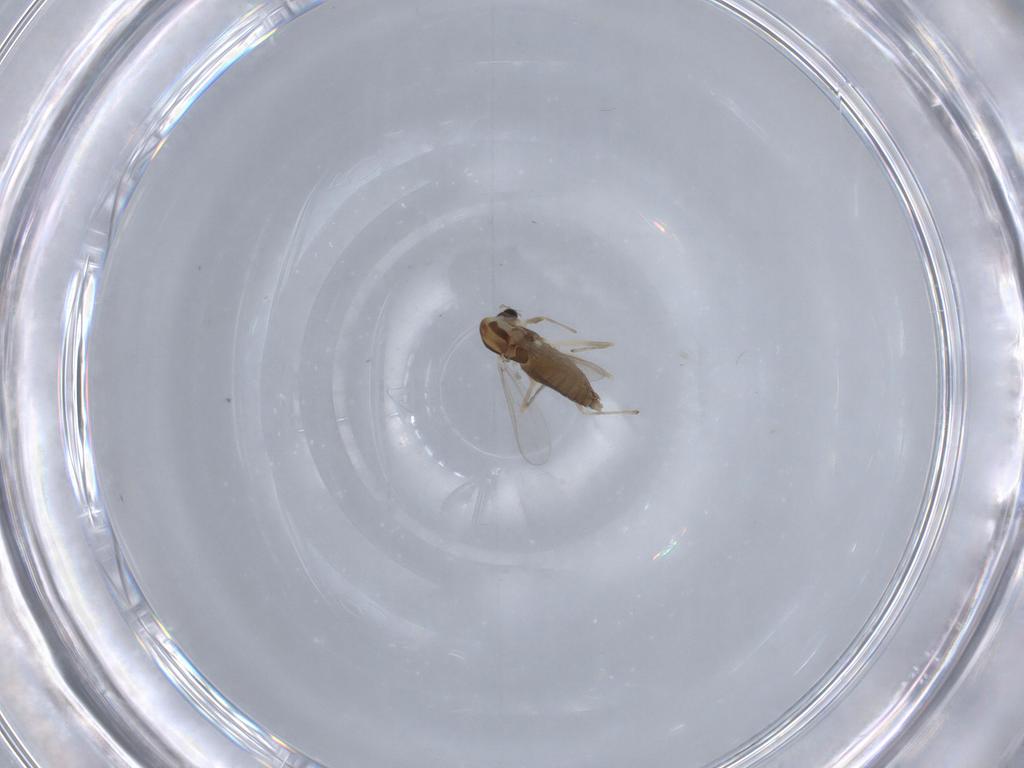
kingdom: Animalia
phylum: Arthropoda
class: Insecta
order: Diptera
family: Chironomidae
